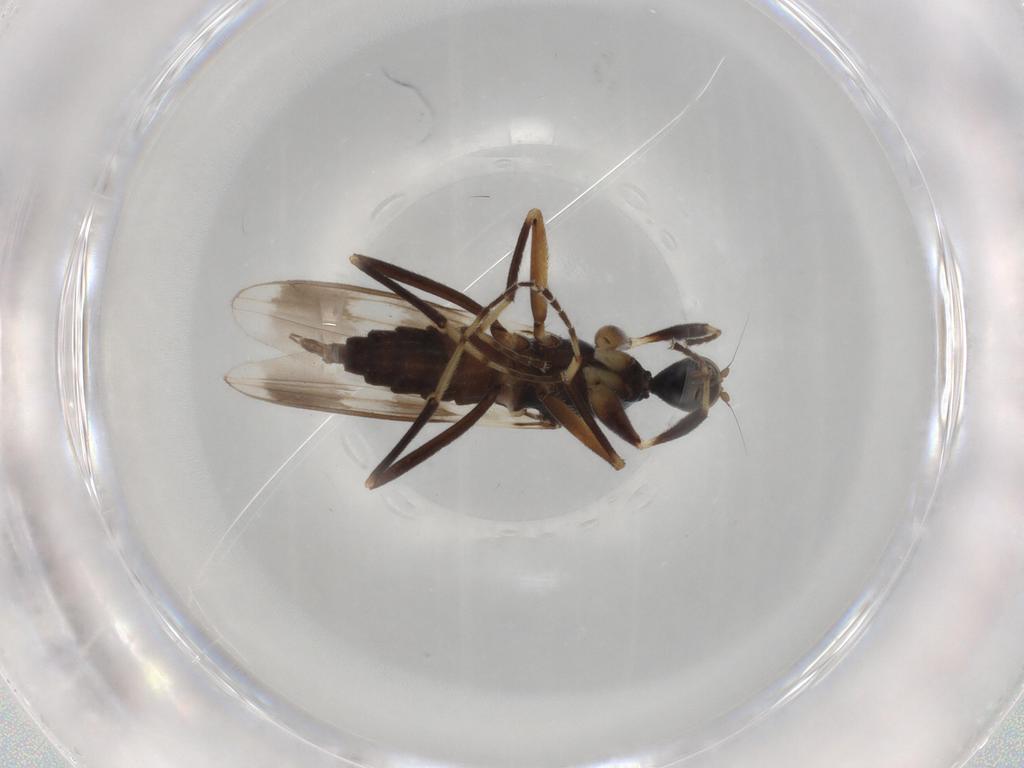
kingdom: Animalia
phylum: Arthropoda
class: Insecta
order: Diptera
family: Hybotidae
